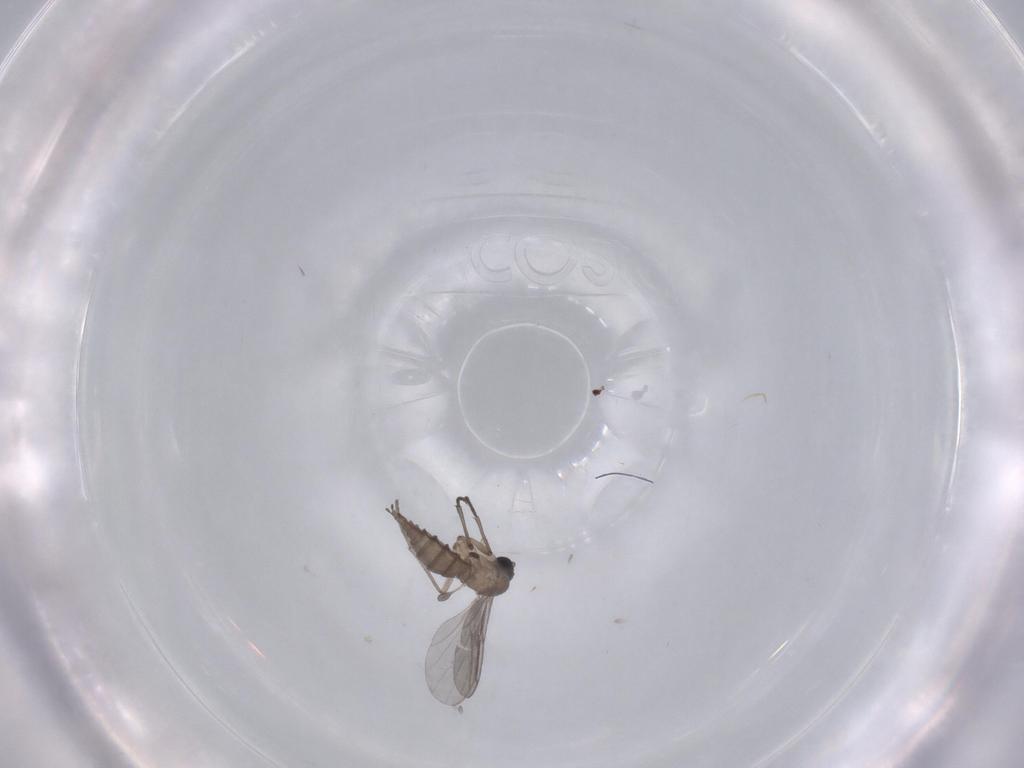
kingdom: Animalia
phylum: Arthropoda
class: Insecta
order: Diptera
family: Sciaridae
